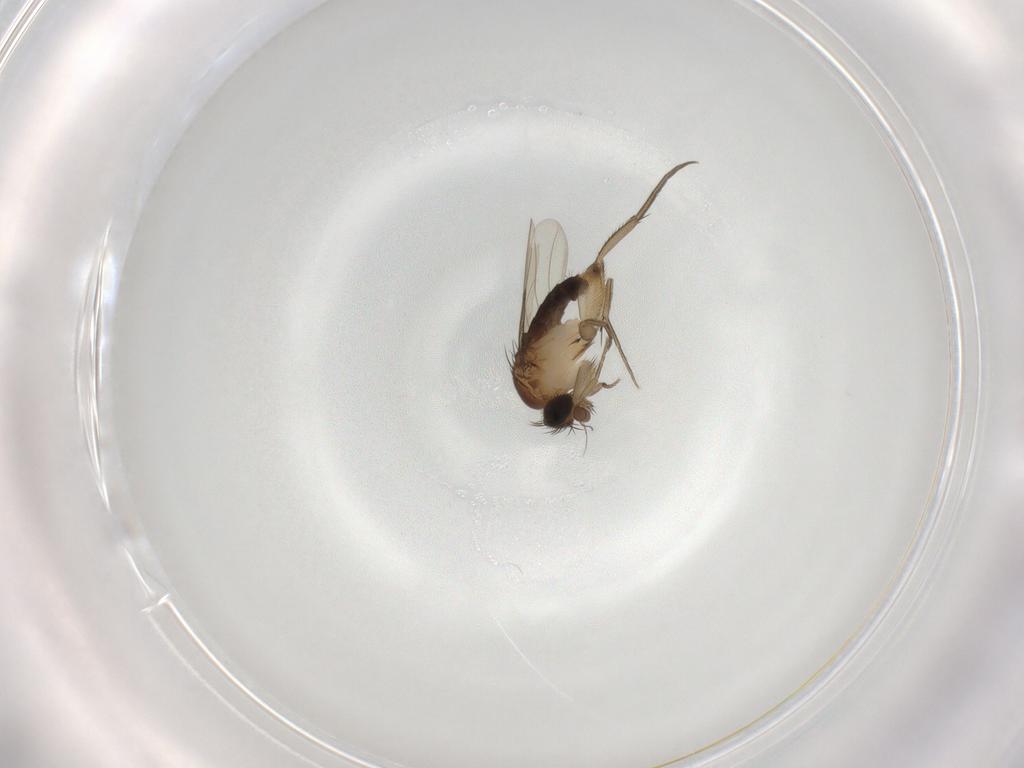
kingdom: Animalia
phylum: Arthropoda
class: Insecta
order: Diptera
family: Phoridae
